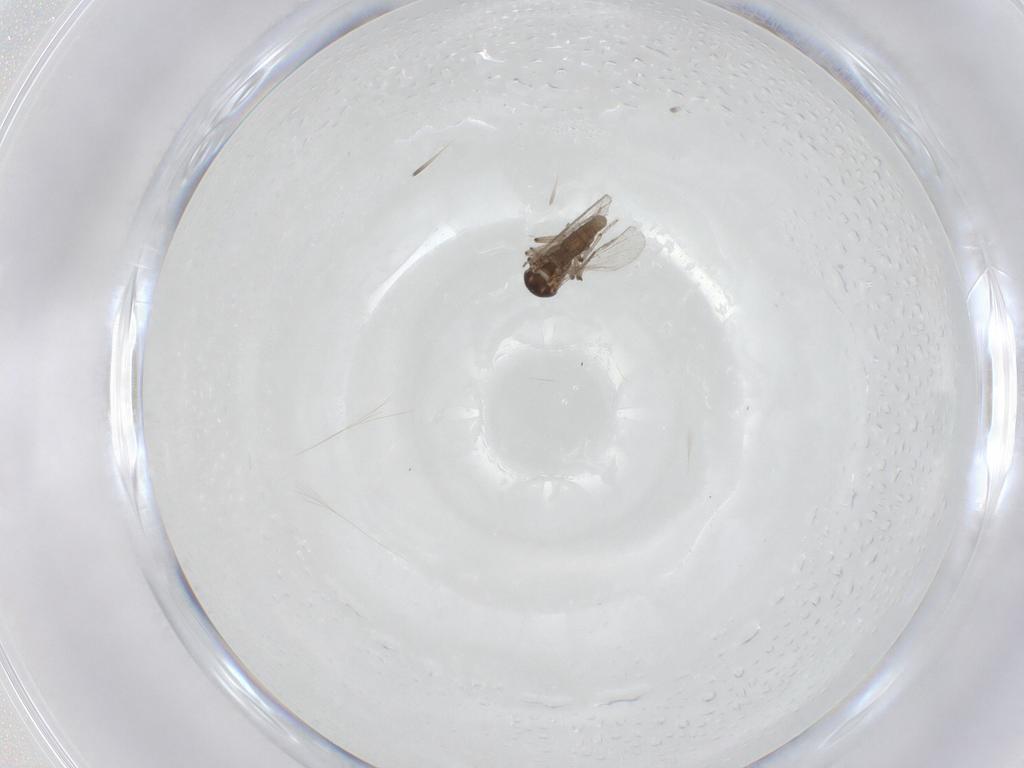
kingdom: Animalia
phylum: Arthropoda
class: Insecta
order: Diptera
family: Ceratopogonidae
